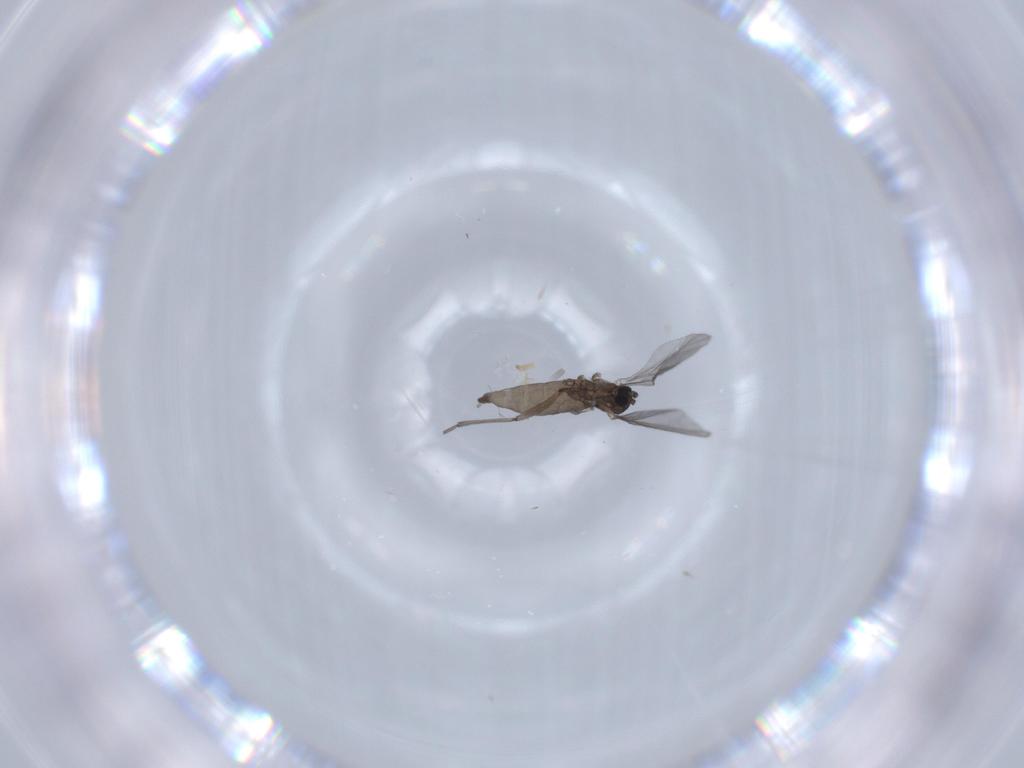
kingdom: Animalia
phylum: Arthropoda
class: Insecta
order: Diptera
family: Sciaridae
